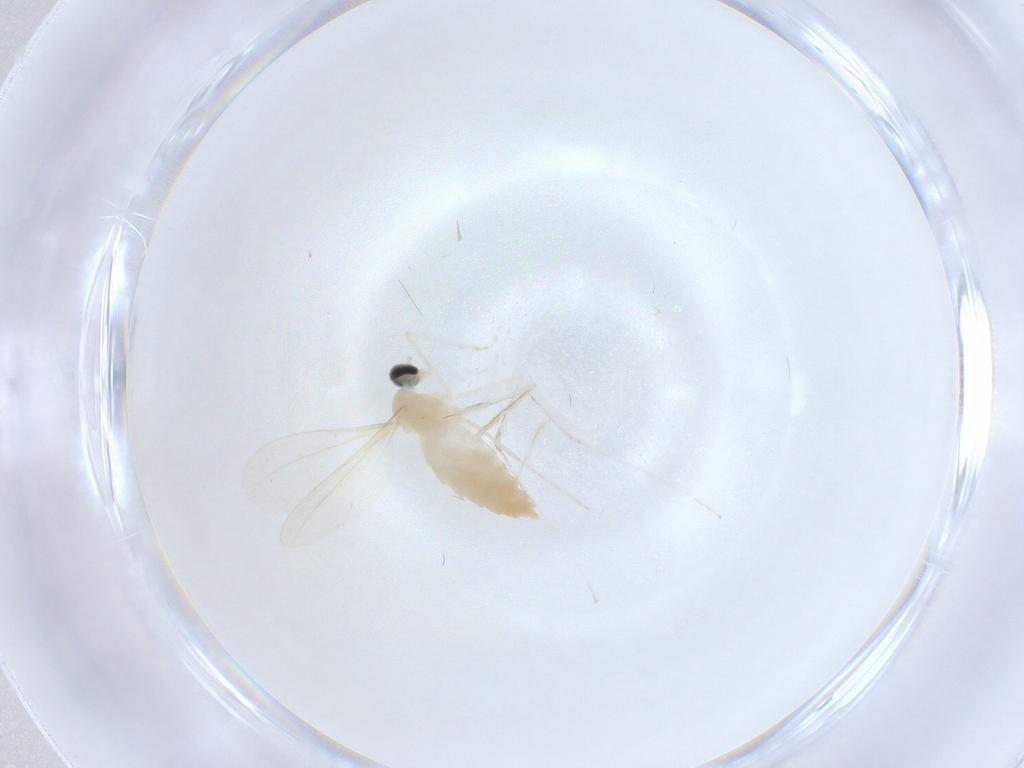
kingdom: Animalia
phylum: Arthropoda
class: Insecta
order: Diptera
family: Cecidomyiidae
